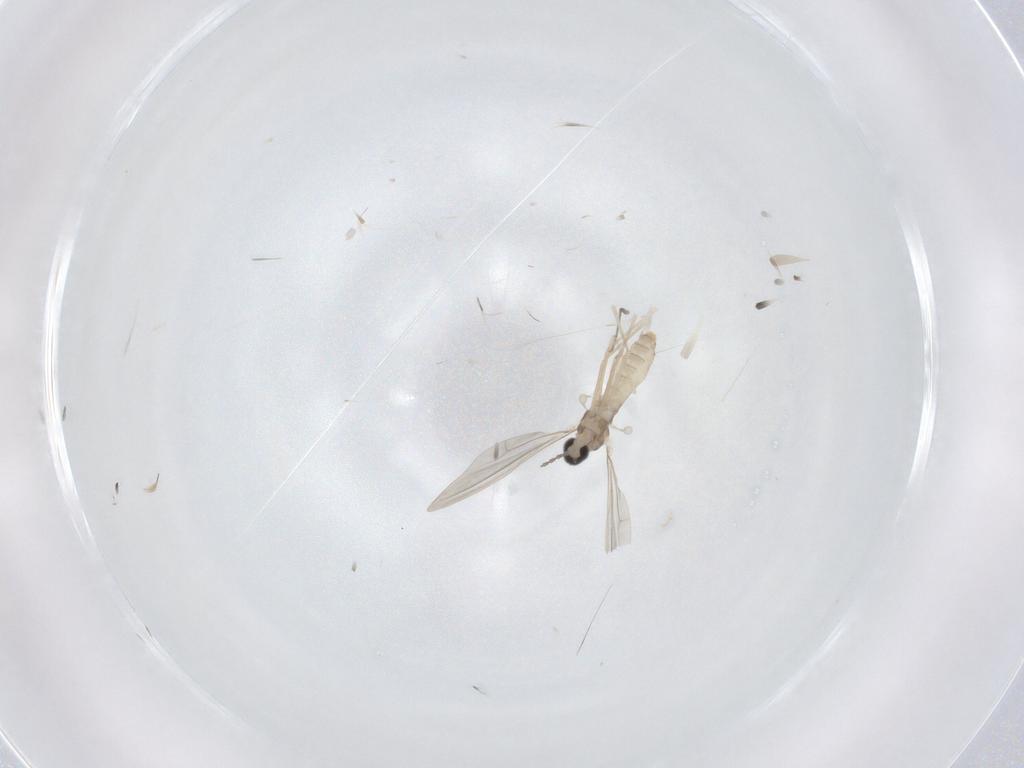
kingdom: Animalia
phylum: Arthropoda
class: Insecta
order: Diptera
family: Cecidomyiidae
